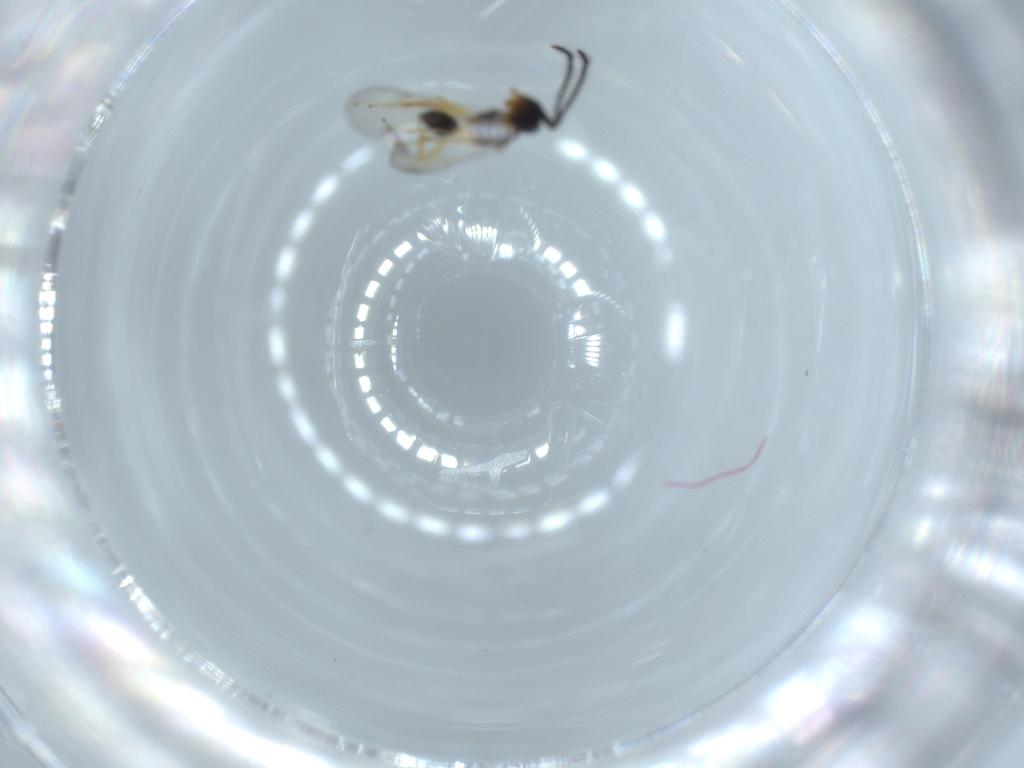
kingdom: Animalia
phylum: Arthropoda
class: Insecta
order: Hymenoptera
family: Diparidae
